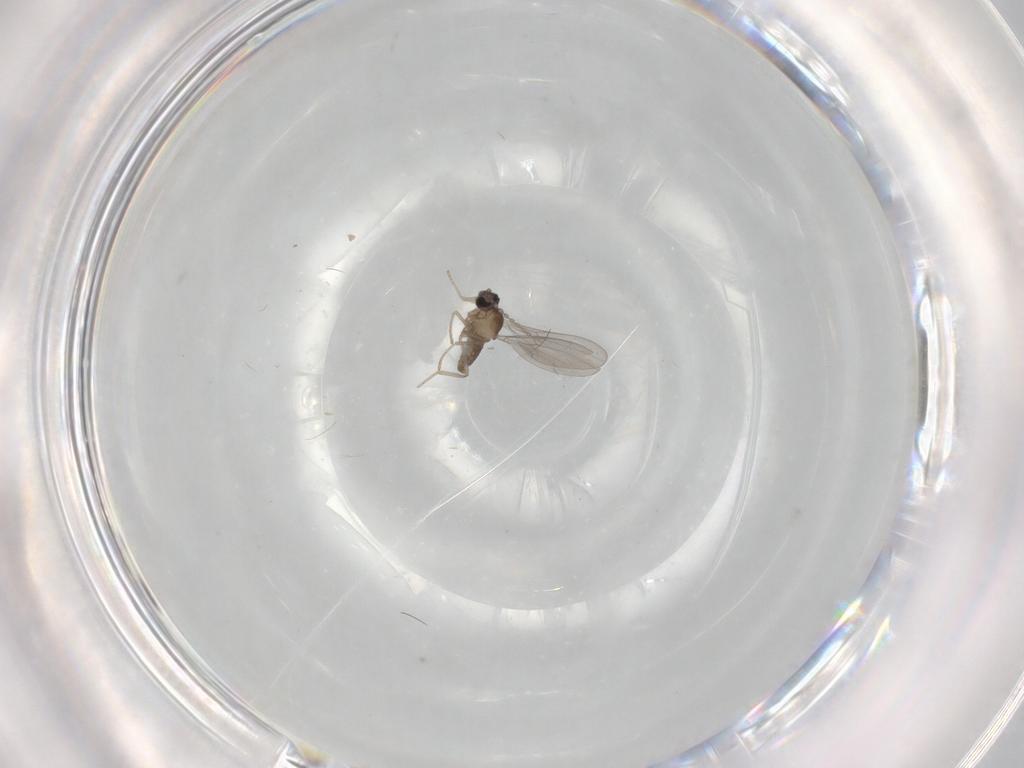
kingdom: Animalia
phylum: Arthropoda
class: Insecta
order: Diptera
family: Cecidomyiidae
